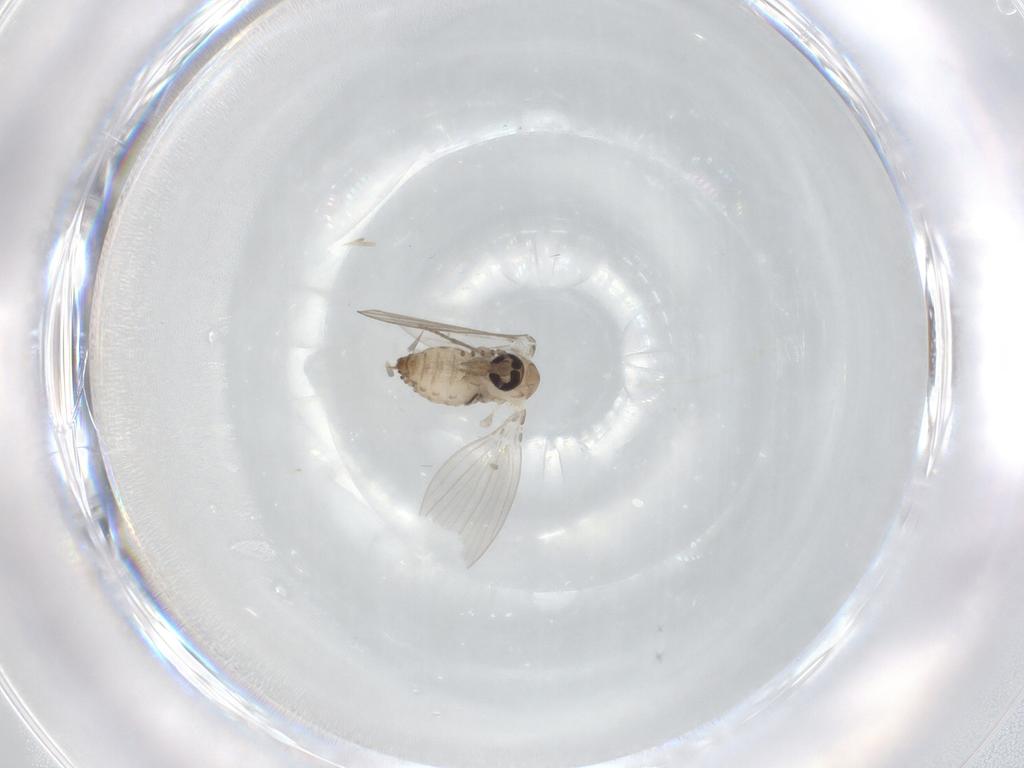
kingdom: Animalia
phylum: Arthropoda
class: Insecta
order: Diptera
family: Psychodidae
